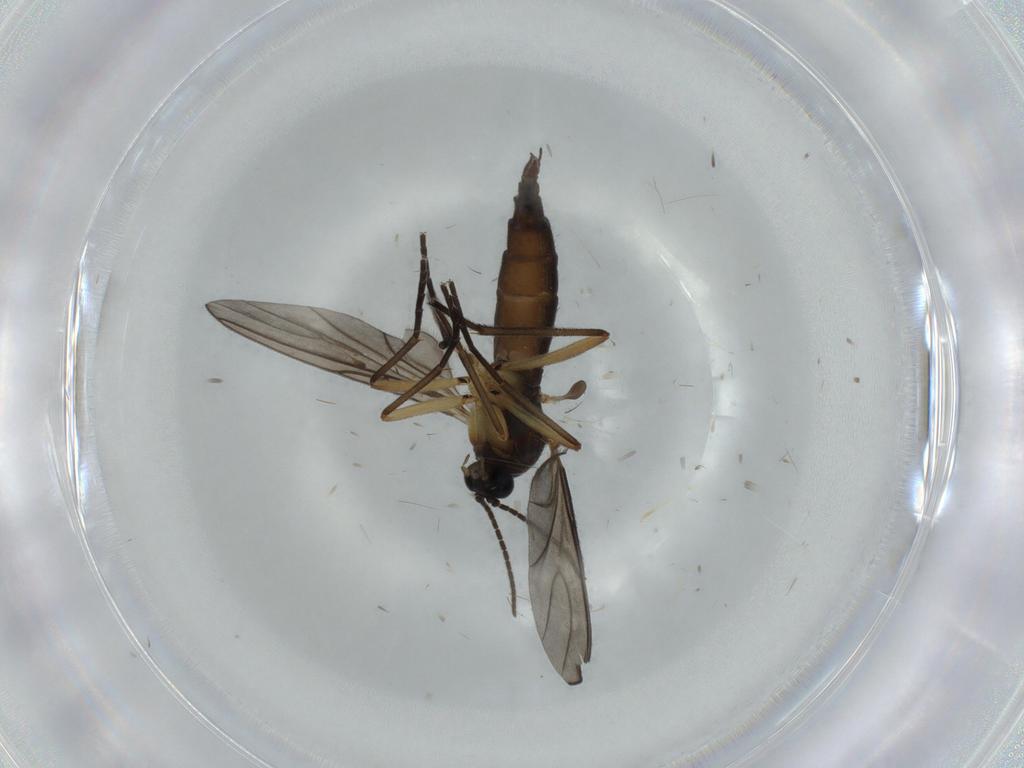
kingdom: Animalia
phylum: Arthropoda
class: Insecta
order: Diptera
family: Sciaridae
